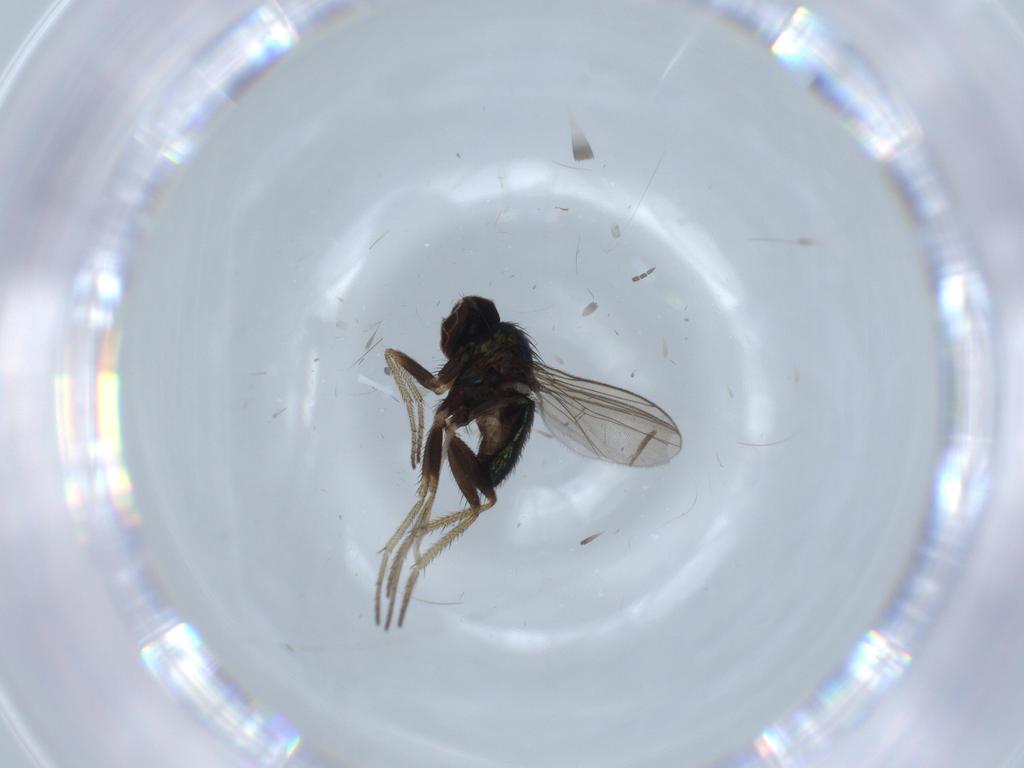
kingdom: Animalia
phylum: Arthropoda
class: Insecta
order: Diptera
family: Sciaridae
